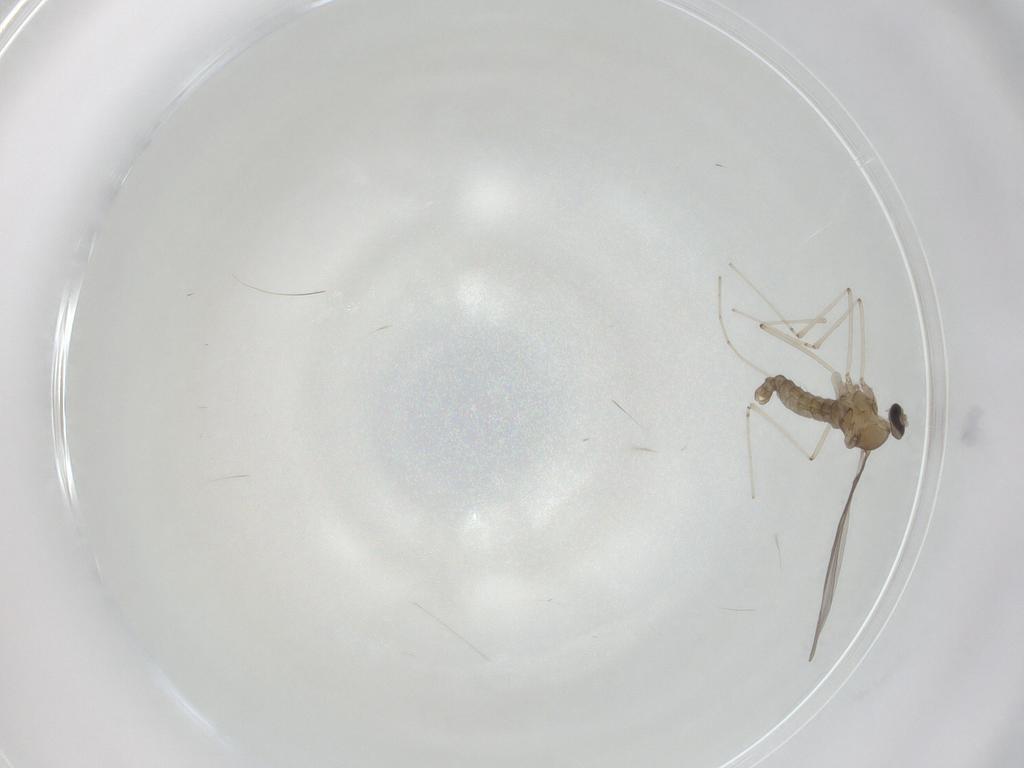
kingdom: Animalia
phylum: Arthropoda
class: Insecta
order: Diptera
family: Cecidomyiidae
